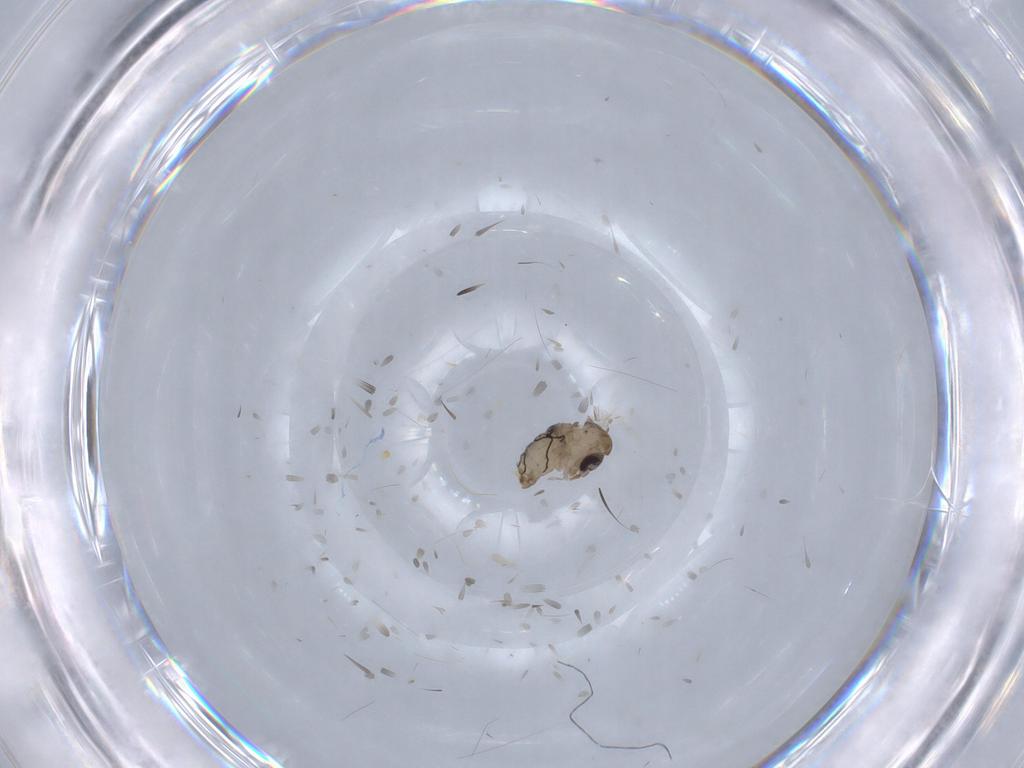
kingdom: Animalia
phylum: Arthropoda
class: Insecta
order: Diptera
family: Psychodidae
